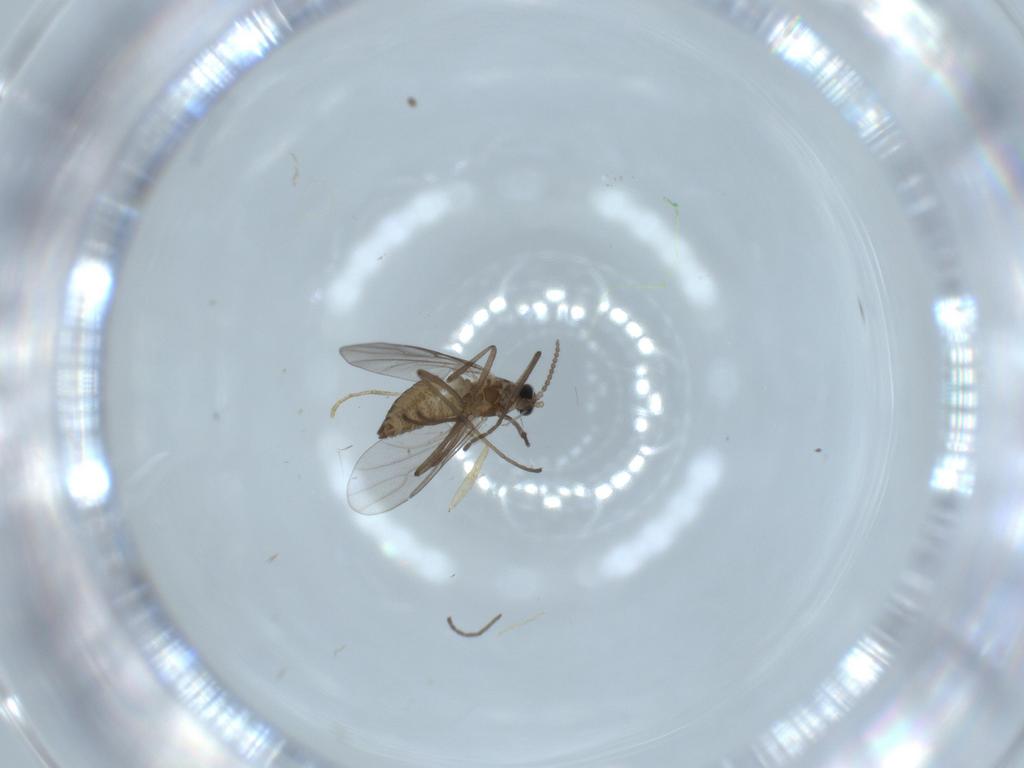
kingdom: Animalia
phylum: Arthropoda
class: Insecta
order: Diptera
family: Psychodidae
